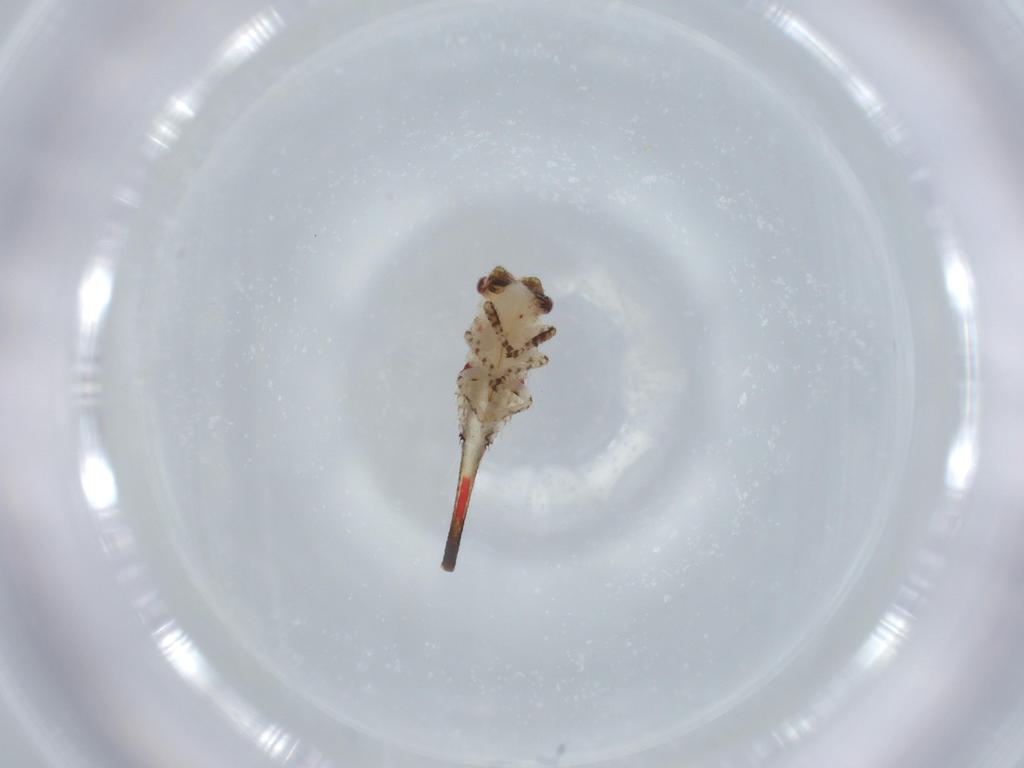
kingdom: Animalia
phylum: Arthropoda
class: Insecta
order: Hemiptera
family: Membracidae
